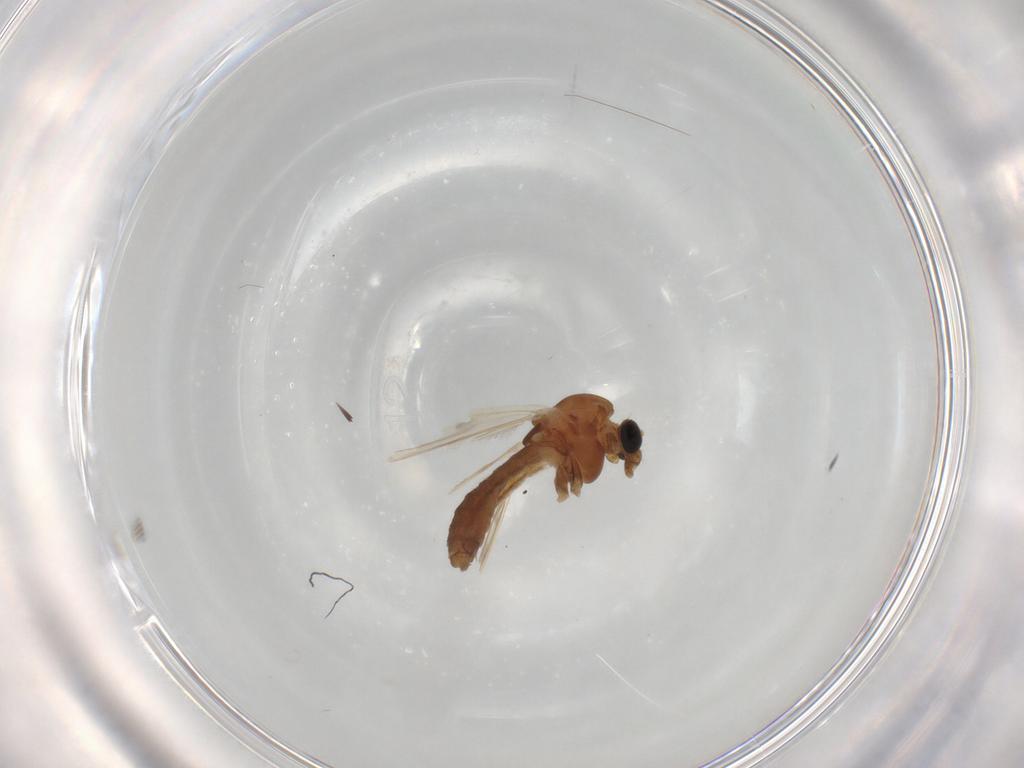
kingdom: Animalia
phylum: Arthropoda
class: Insecta
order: Diptera
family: Chironomidae
